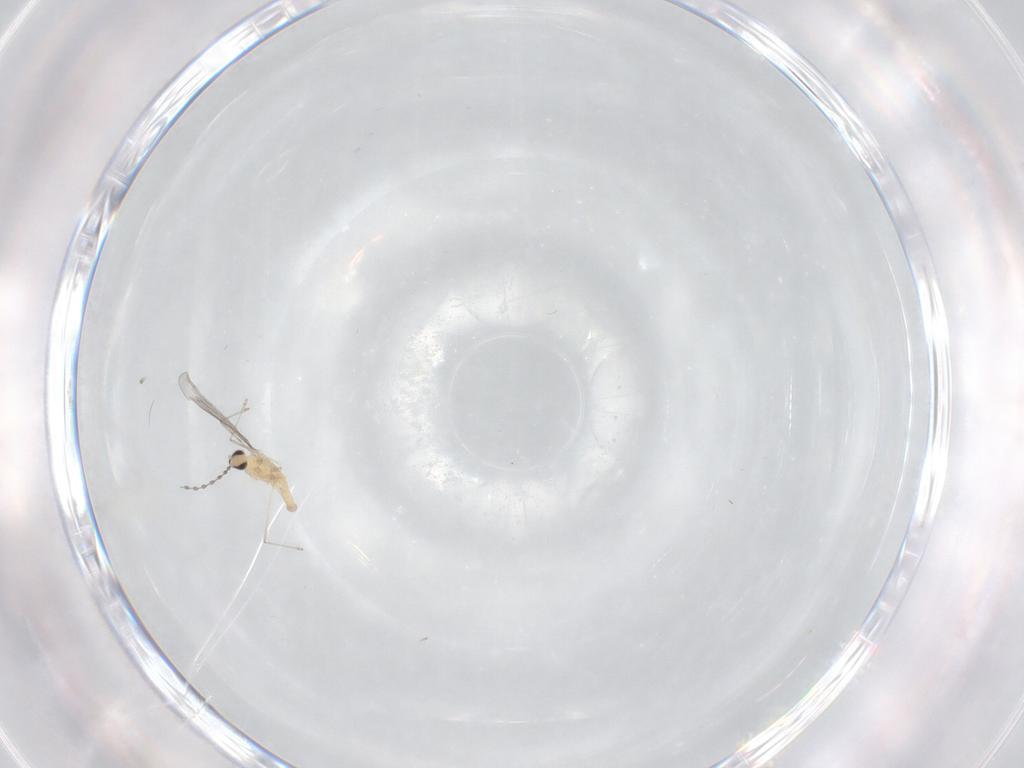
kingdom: Animalia
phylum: Arthropoda
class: Insecta
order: Diptera
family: Cecidomyiidae
